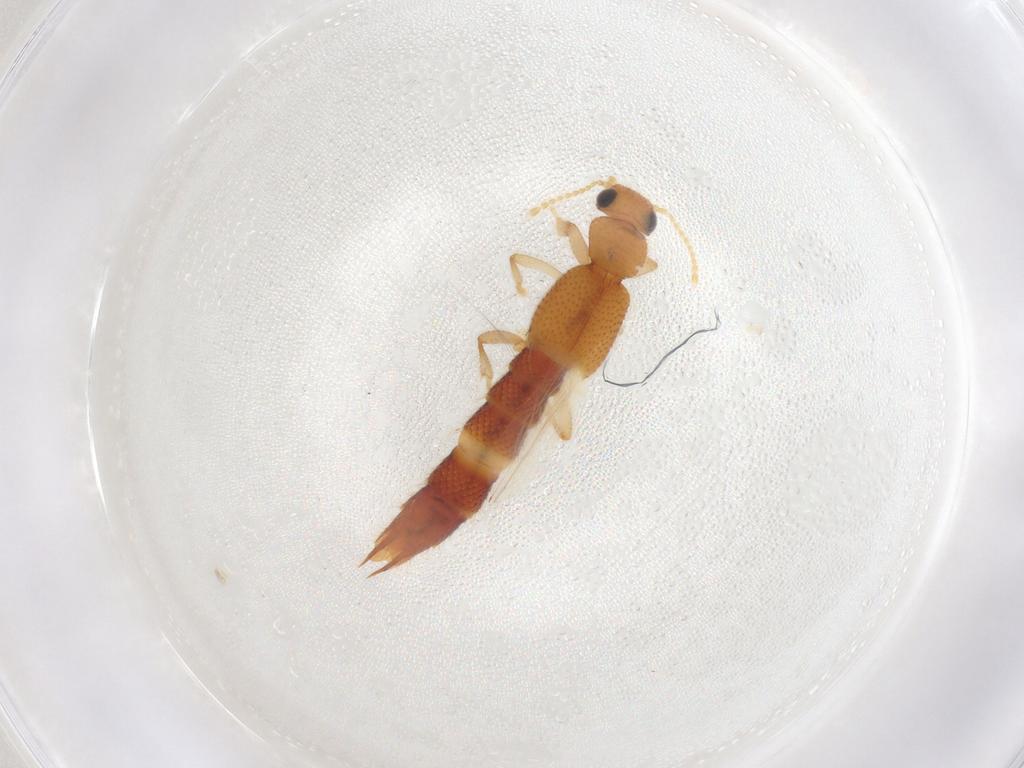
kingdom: Animalia
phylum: Arthropoda
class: Insecta
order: Coleoptera
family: Staphylinidae
